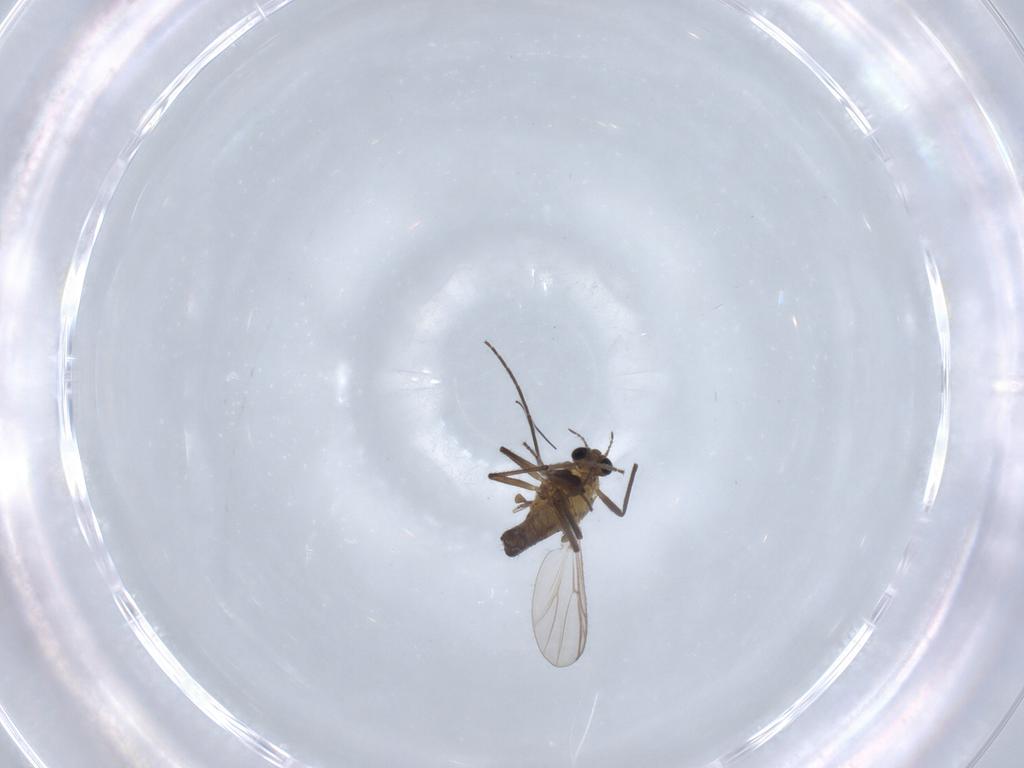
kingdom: Animalia
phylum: Arthropoda
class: Insecta
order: Diptera
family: Chironomidae
